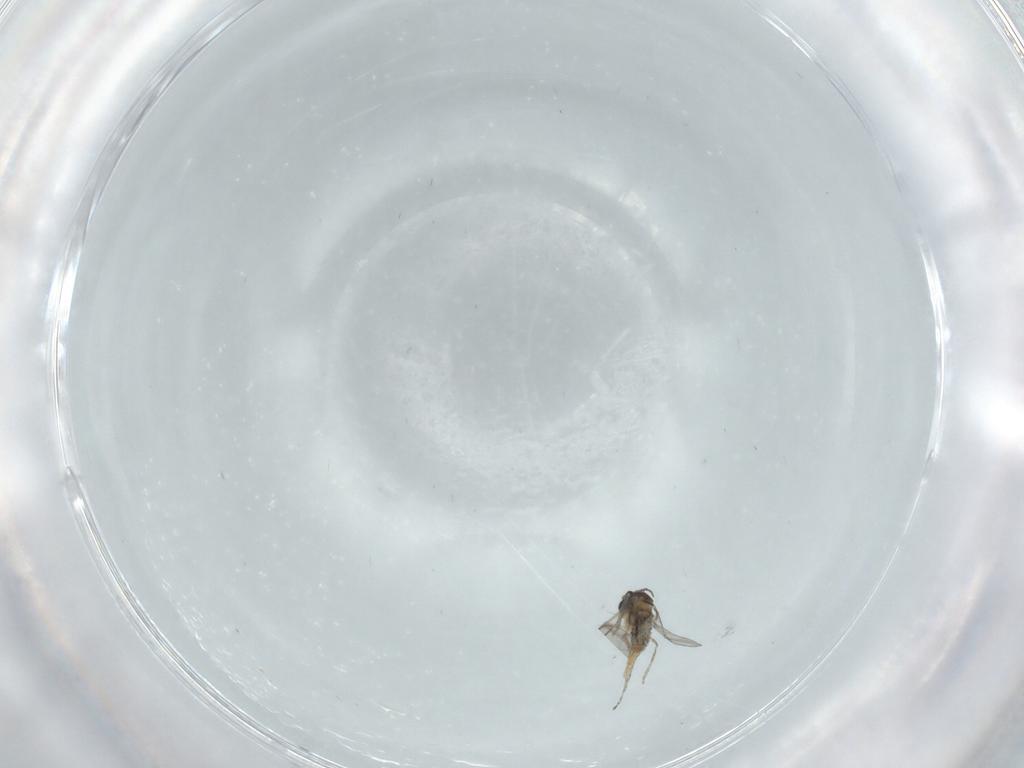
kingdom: Animalia
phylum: Arthropoda
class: Insecta
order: Diptera
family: Cecidomyiidae
